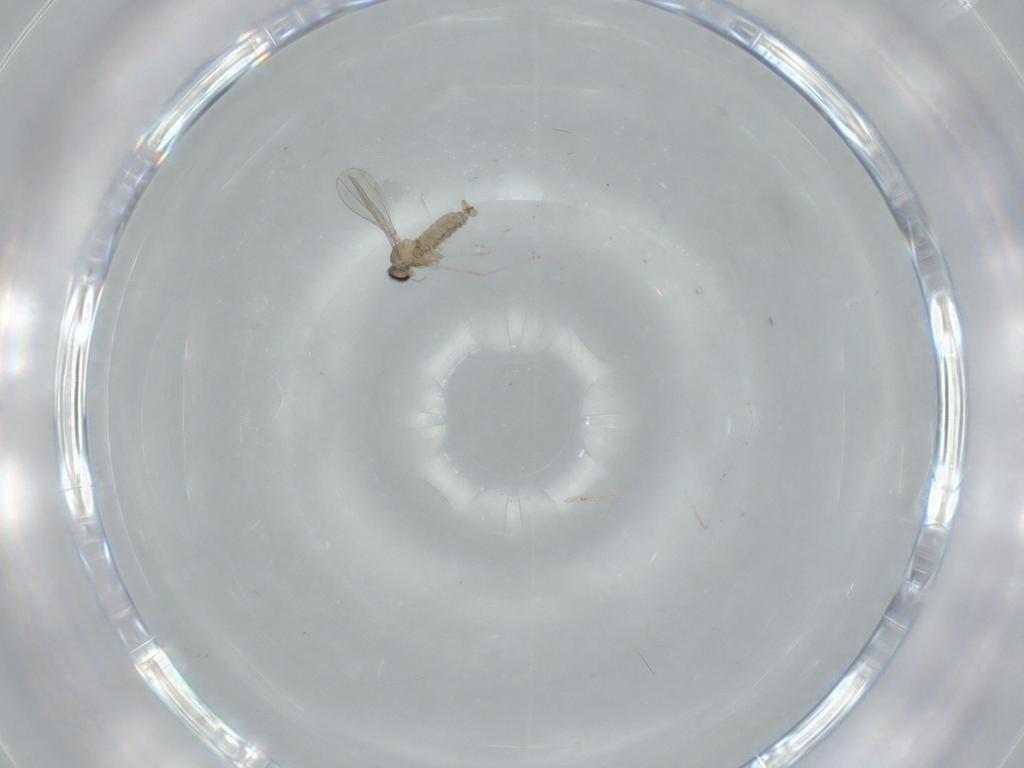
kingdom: Animalia
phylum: Arthropoda
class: Insecta
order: Diptera
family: Cecidomyiidae
